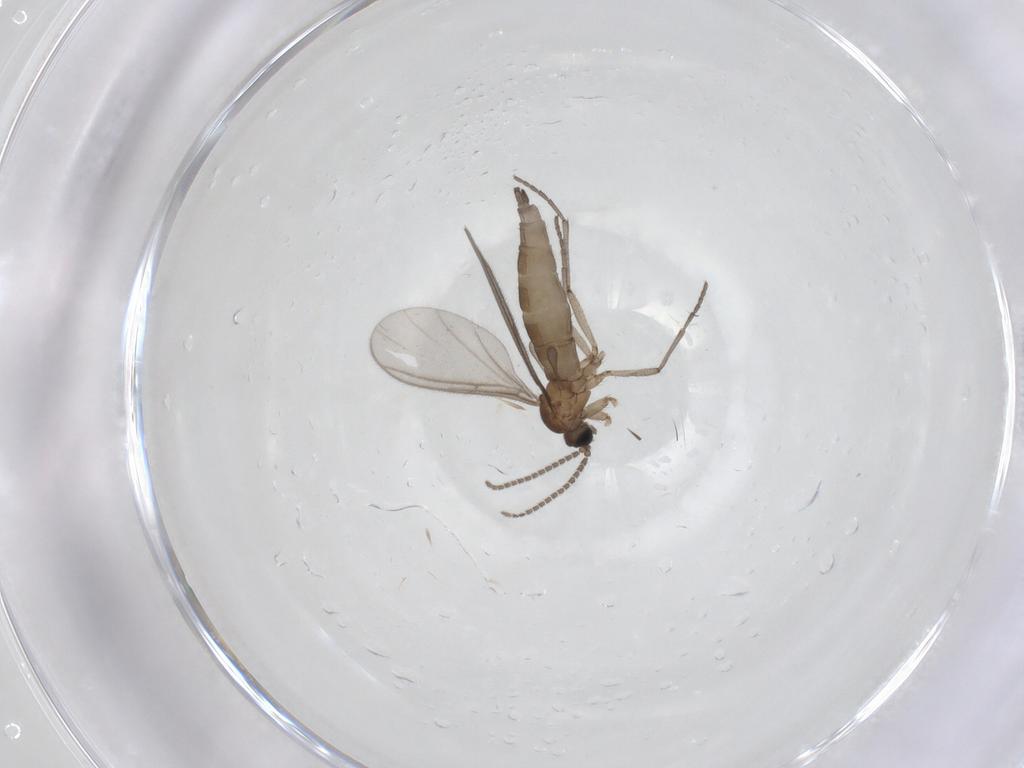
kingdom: Animalia
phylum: Arthropoda
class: Insecta
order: Diptera
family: Sciaridae
